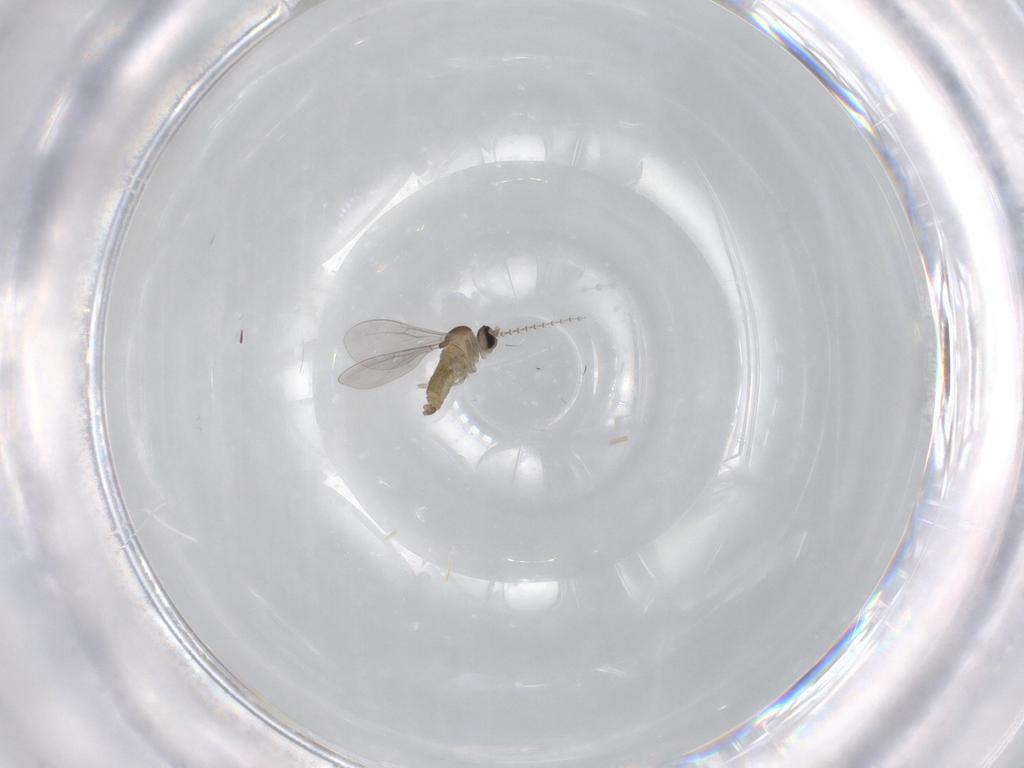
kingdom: Animalia
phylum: Arthropoda
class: Insecta
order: Diptera
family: Cecidomyiidae
